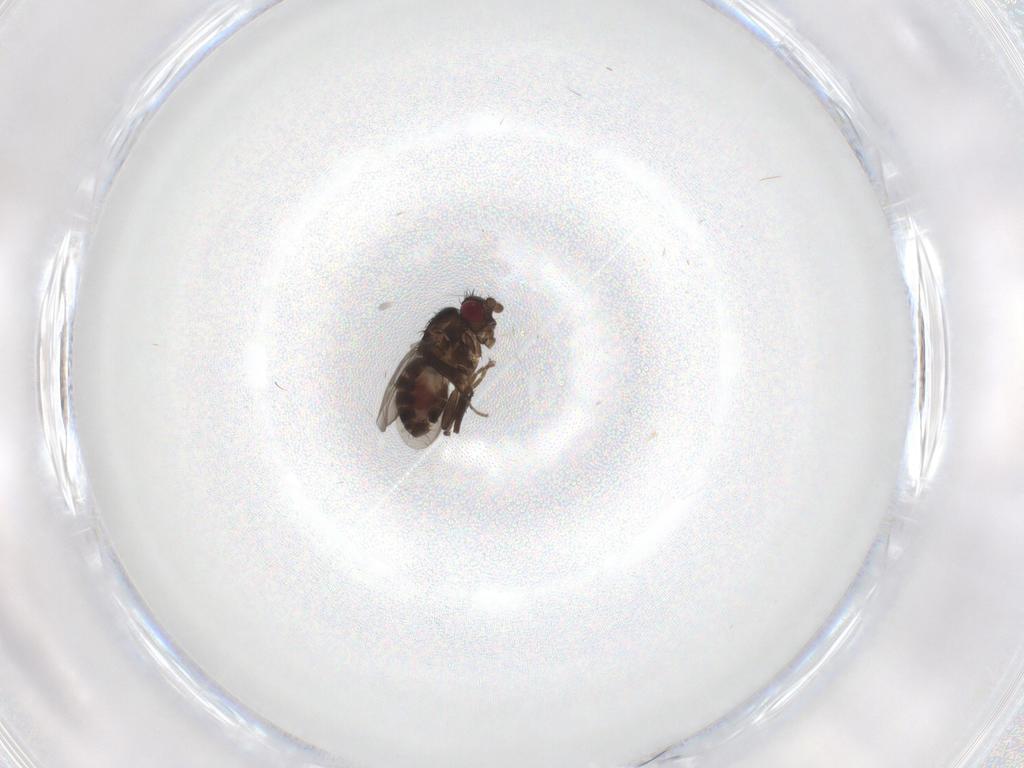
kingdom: Animalia
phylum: Arthropoda
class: Insecta
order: Diptera
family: Sphaeroceridae
